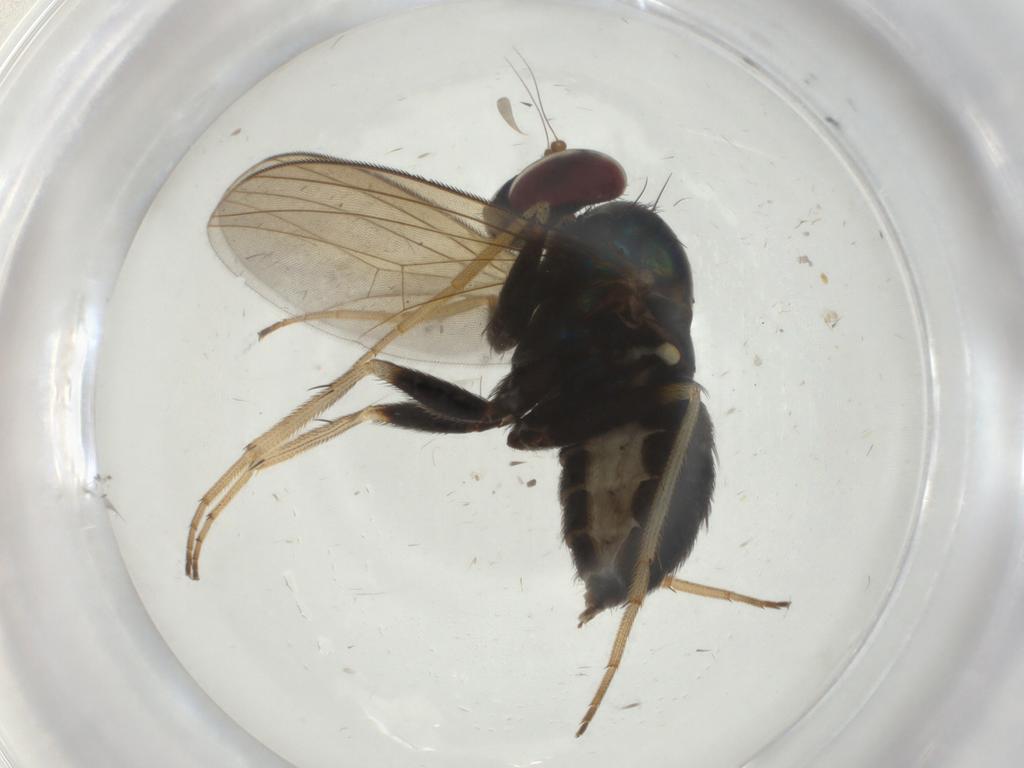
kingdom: Animalia
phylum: Arthropoda
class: Insecta
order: Diptera
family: Dolichopodidae
